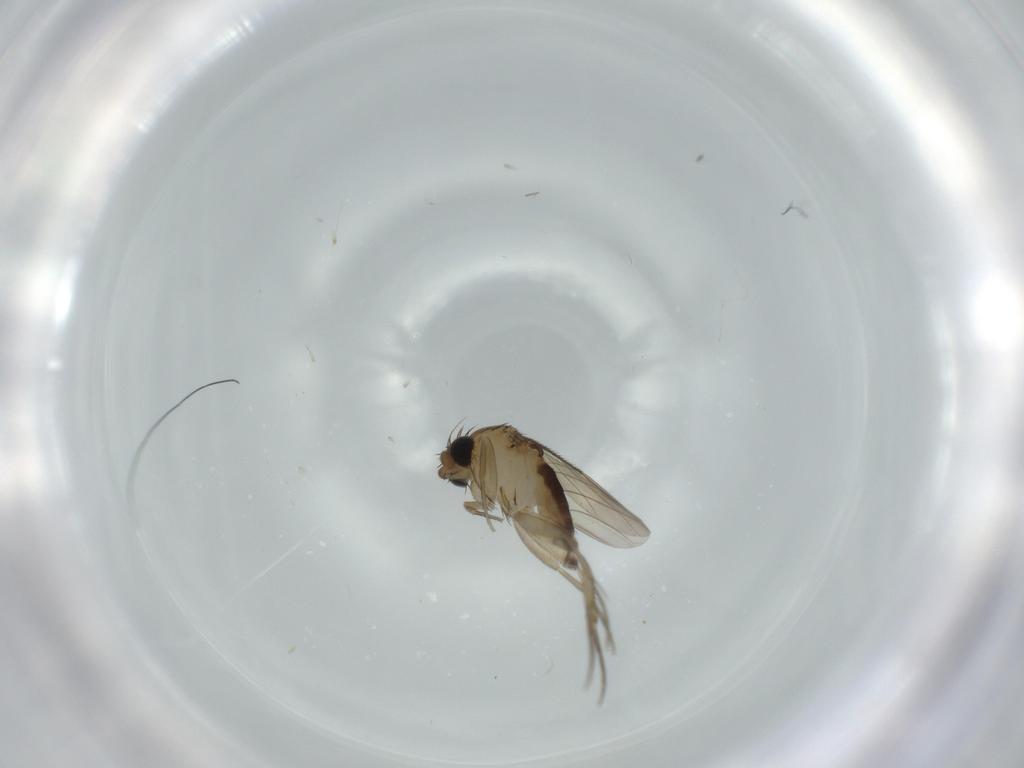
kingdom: Animalia
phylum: Arthropoda
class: Insecta
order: Diptera
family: Phoridae
